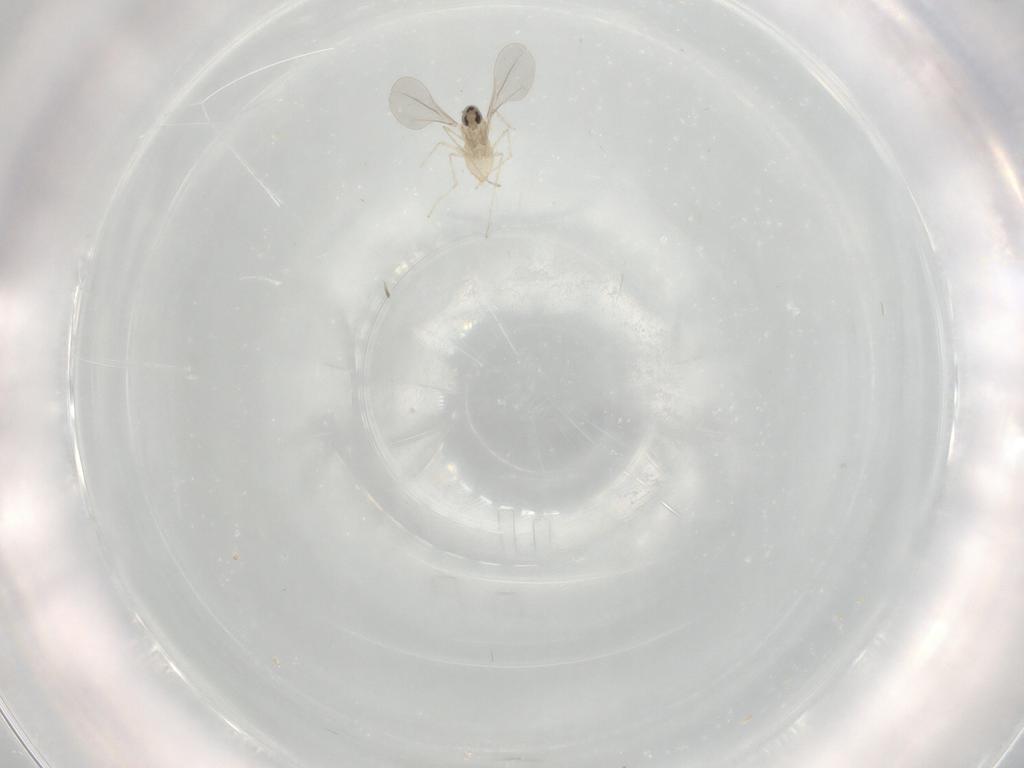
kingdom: Animalia
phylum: Arthropoda
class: Insecta
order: Diptera
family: Cecidomyiidae
